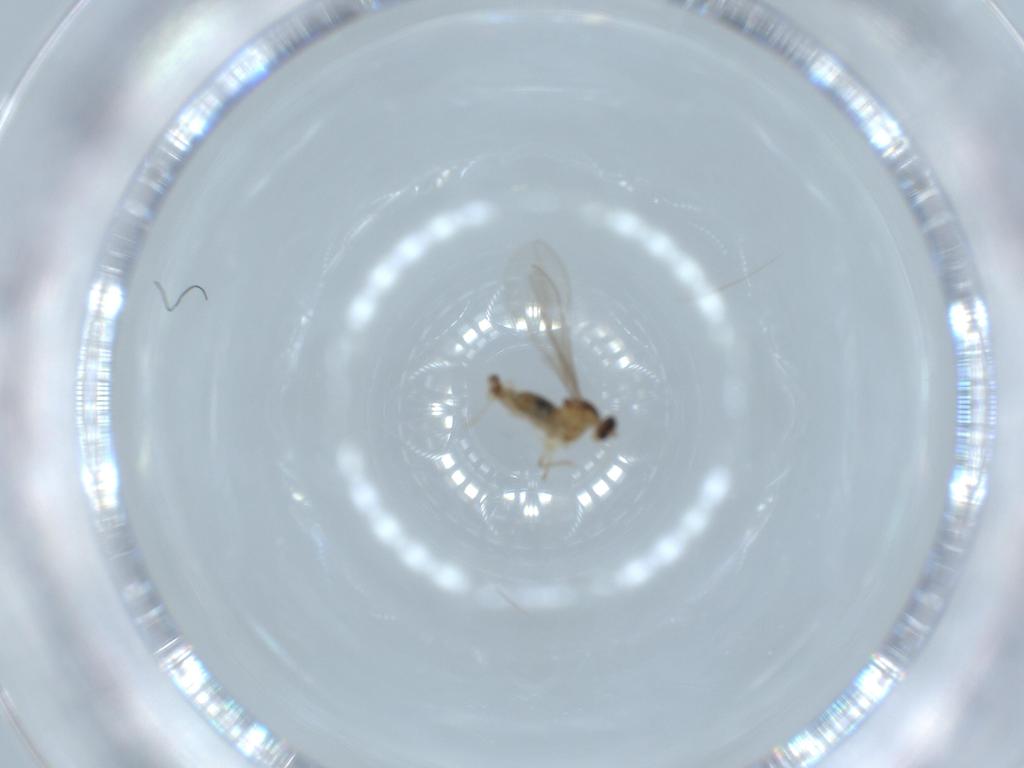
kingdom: Animalia
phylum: Arthropoda
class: Insecta
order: Diptera
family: Cecidomyiidae
